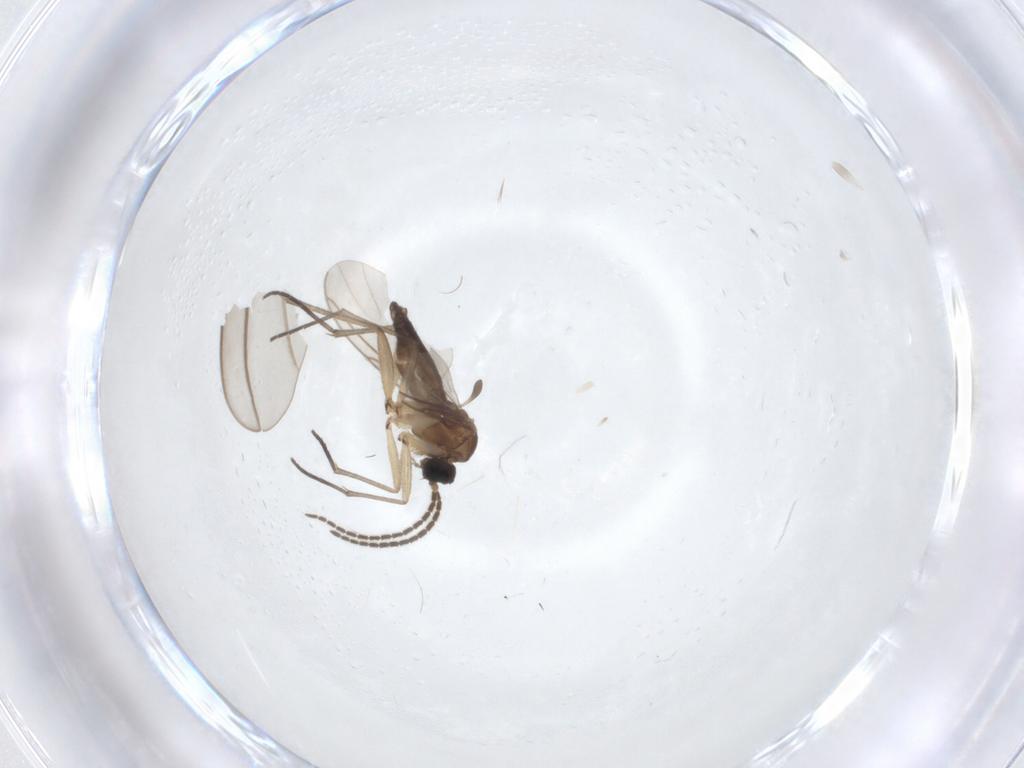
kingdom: Animalia
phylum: Arthropoda
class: Insecta
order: Diptera
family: Sciaridae
